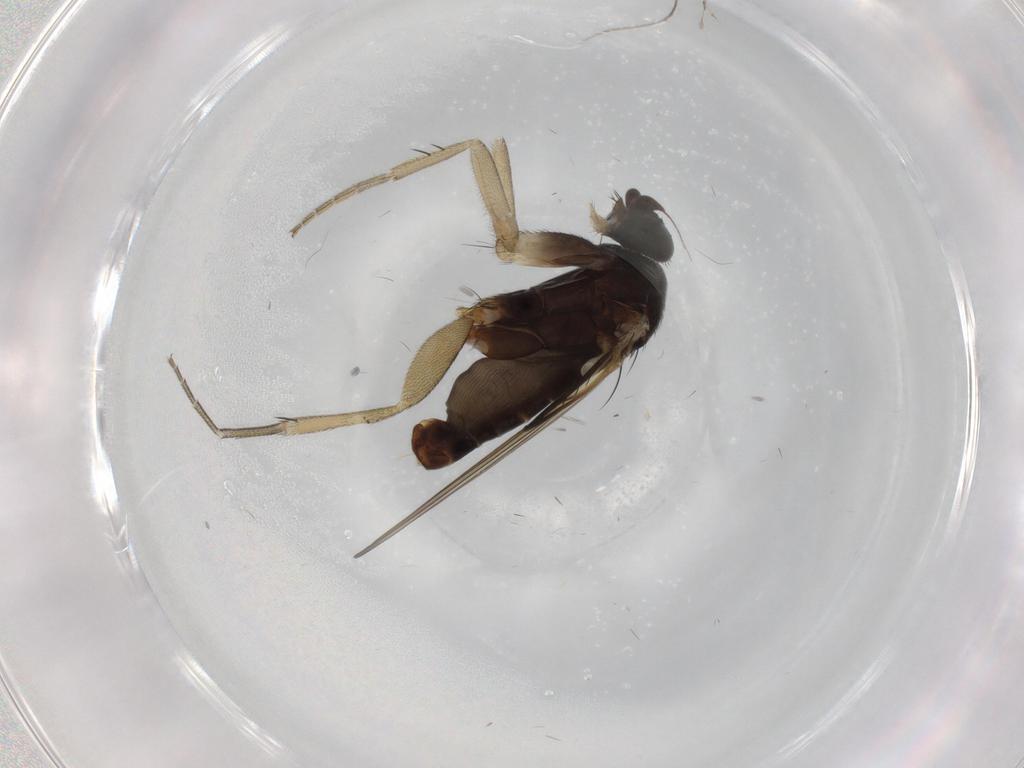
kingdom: Animalia
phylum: Arthropoda
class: Insecta
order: Diptera
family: Phoridae
